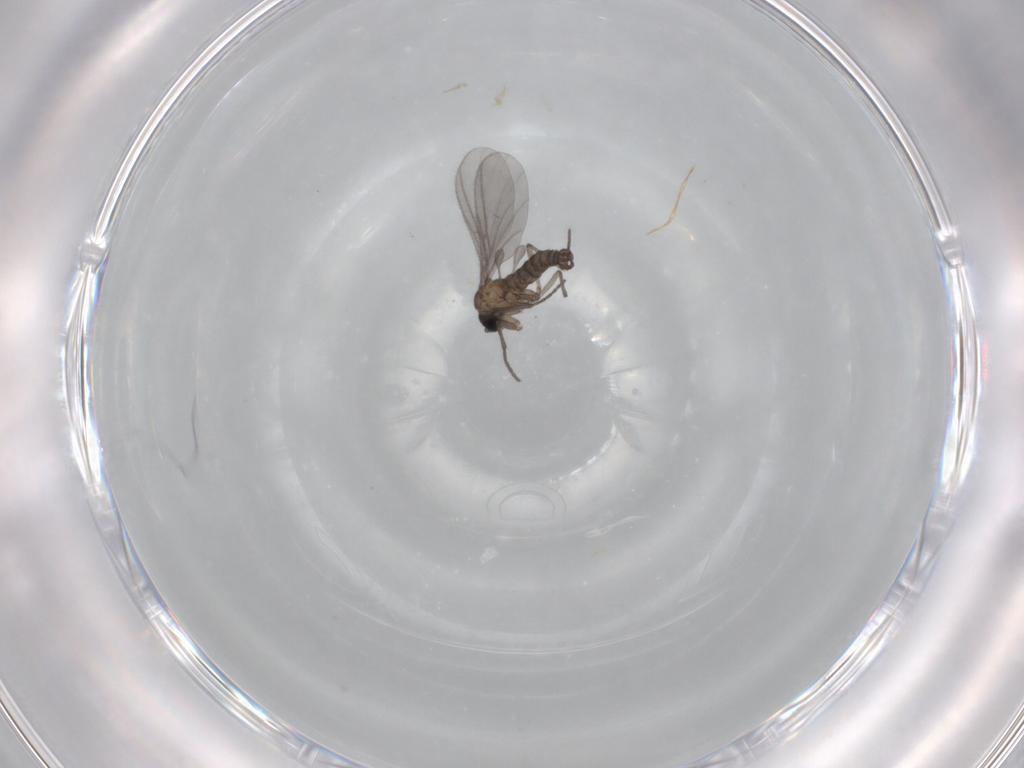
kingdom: Animalia
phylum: Arthropoda
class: Insecta
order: Diptera
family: Sciaridae
